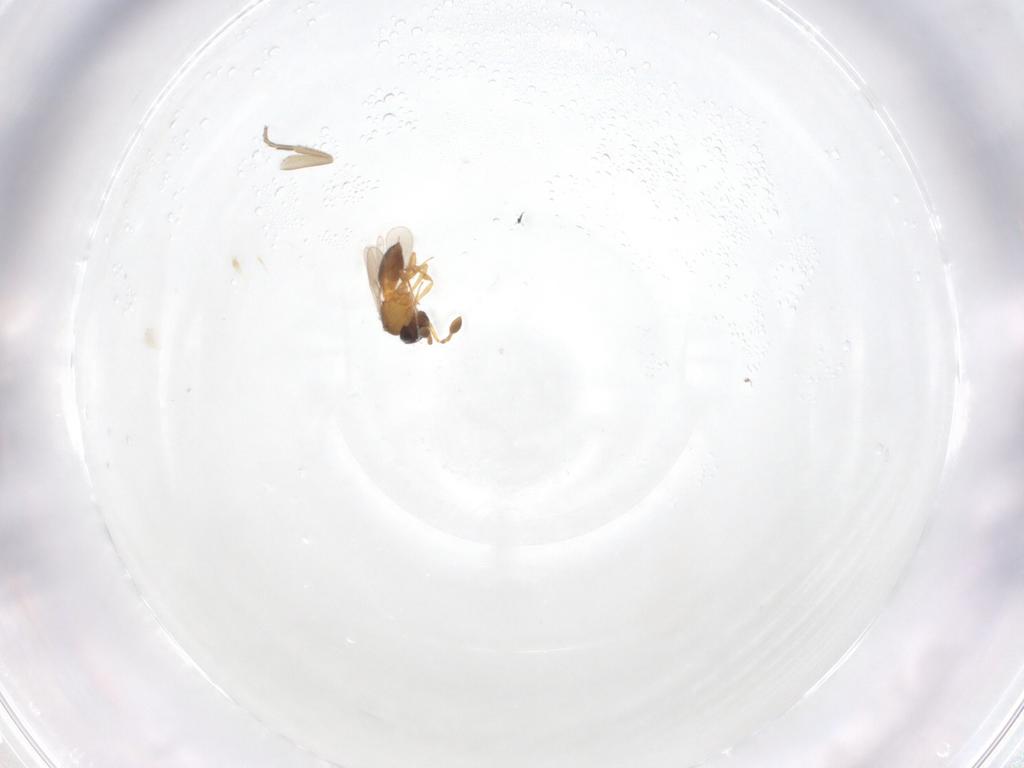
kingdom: Animalia
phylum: Arthropoda
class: Insecta
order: Hymenoptera
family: Scelionidae
